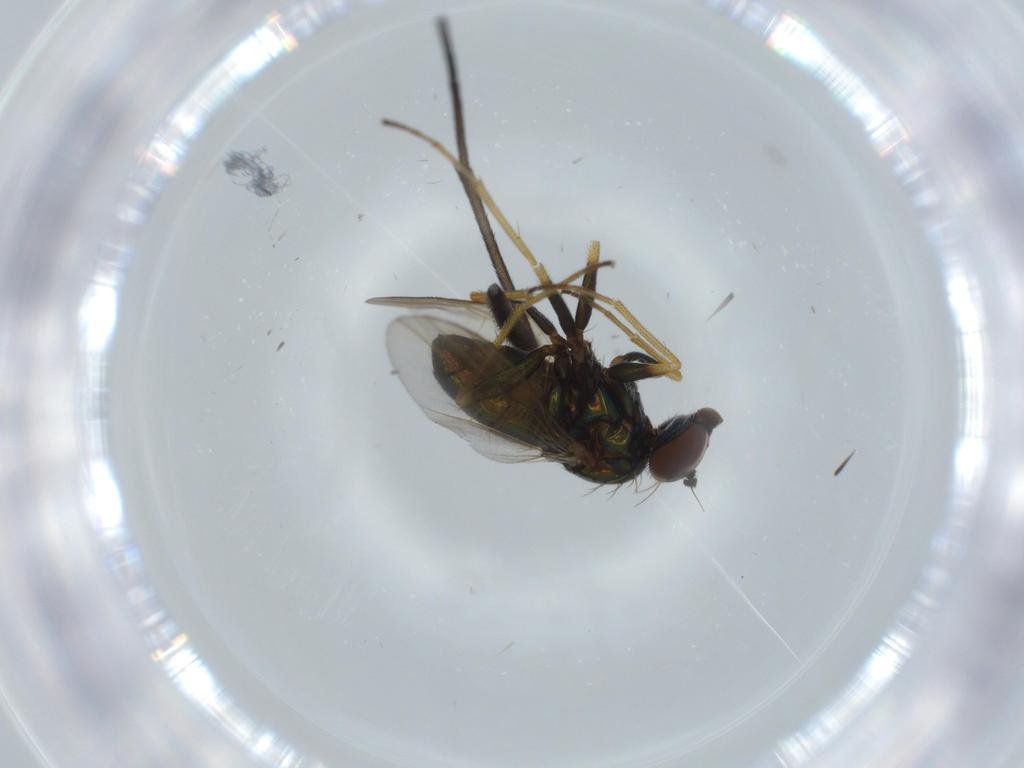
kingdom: Animalia
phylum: Arthropoda
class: Insecta
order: Diptera
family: Dolichopodidae
